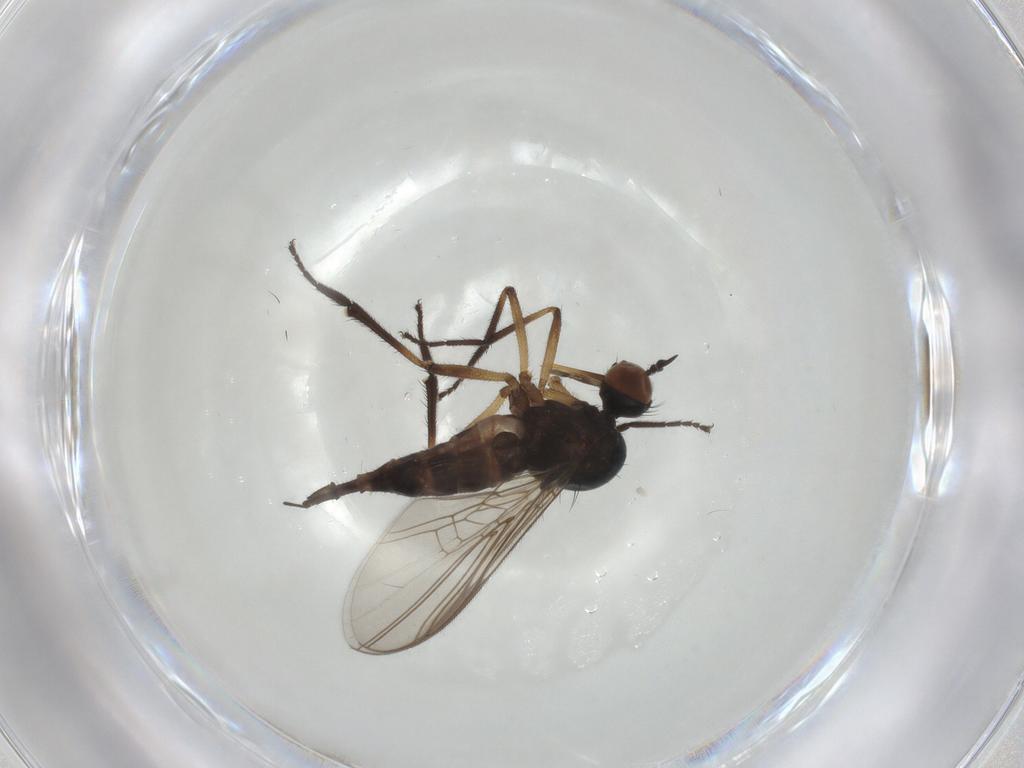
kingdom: Animalia
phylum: Arthropoda
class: Insecta
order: Diptera
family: Empididae
